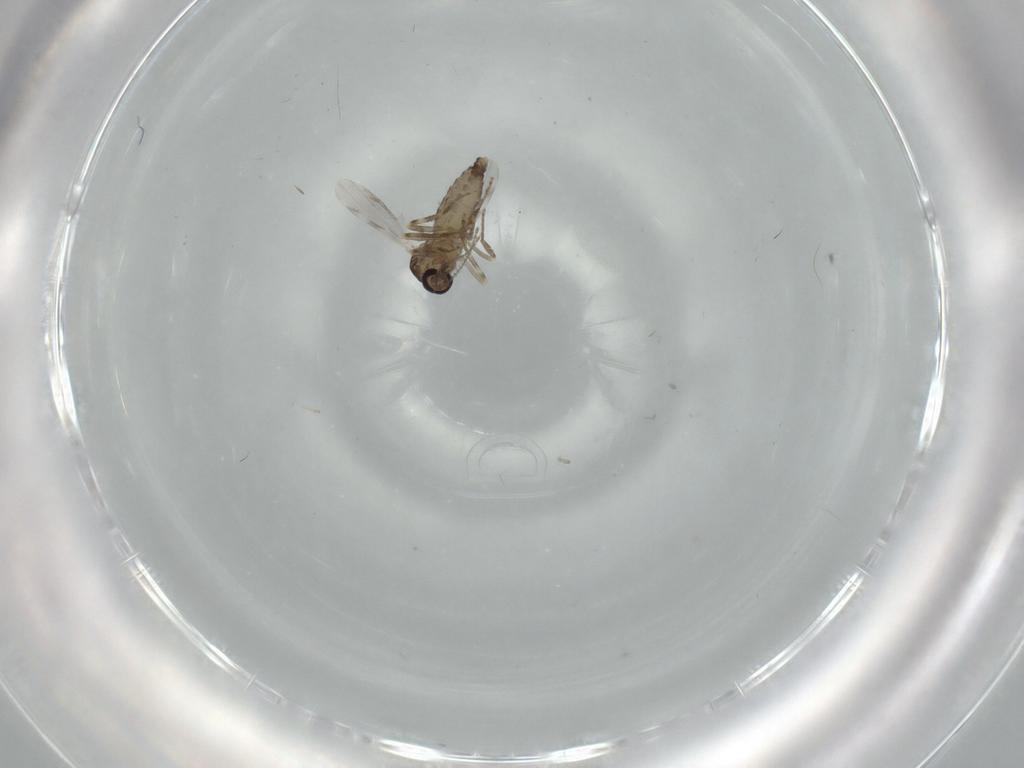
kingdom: Animalia
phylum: Arthropoda
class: Insecta
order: Diptera
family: Ceratopogonidae
